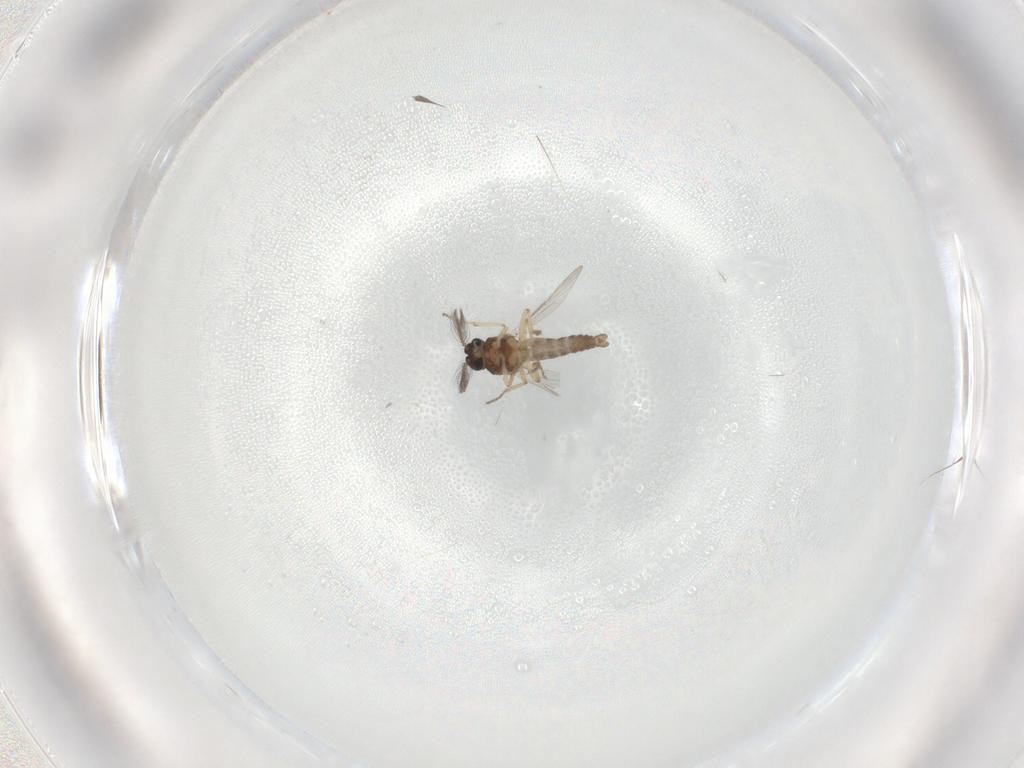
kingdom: Animalia
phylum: Arthropoda
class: Insecta
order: Diptera
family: Ceratopogonidae
